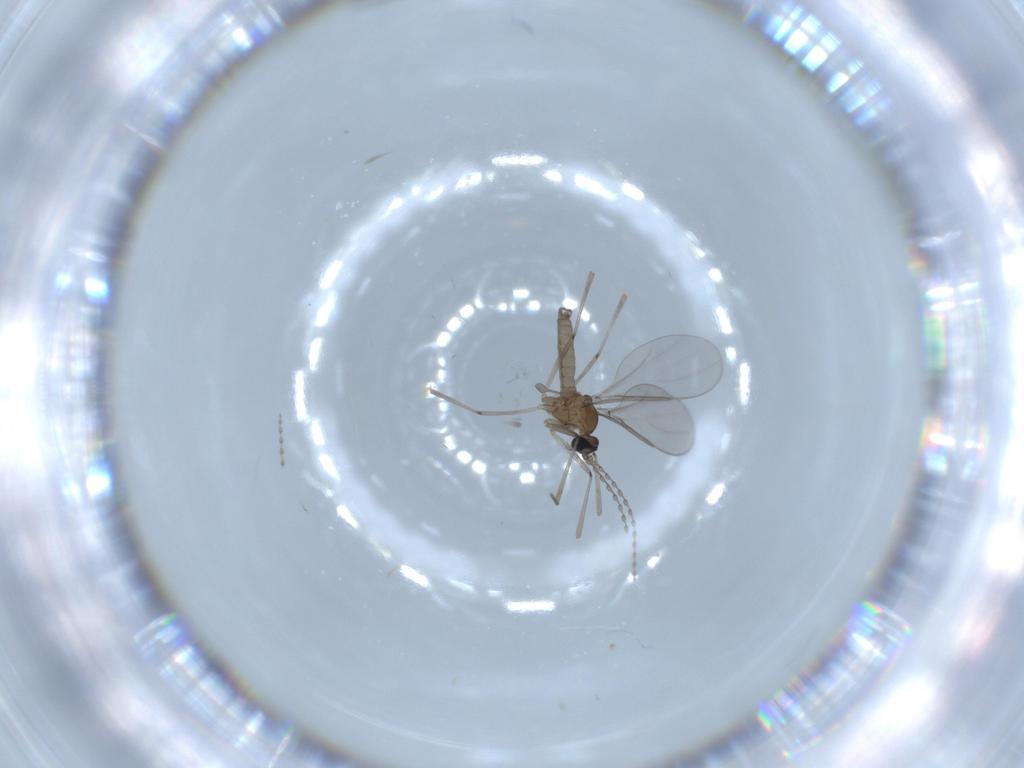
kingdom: Animalia
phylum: Arthropoda
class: Insecta
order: Diptera
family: Cecidomyiidae
